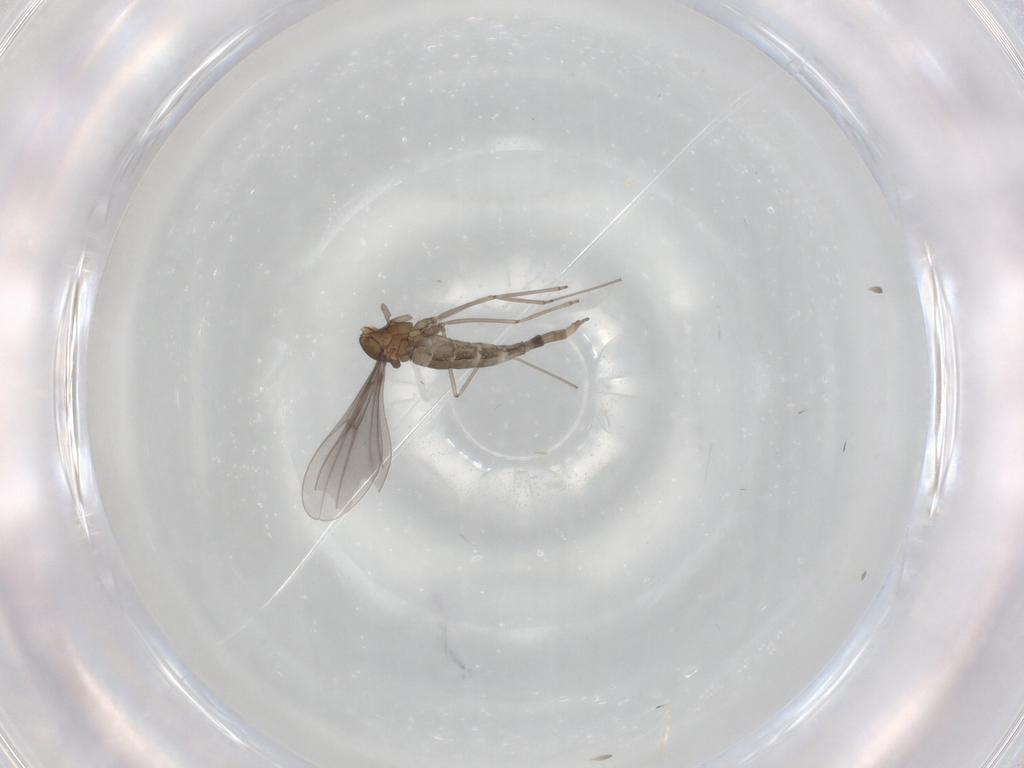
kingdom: Animalia
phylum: Arthropoda
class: Insecta
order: Diptera
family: Cecidomyiidae
